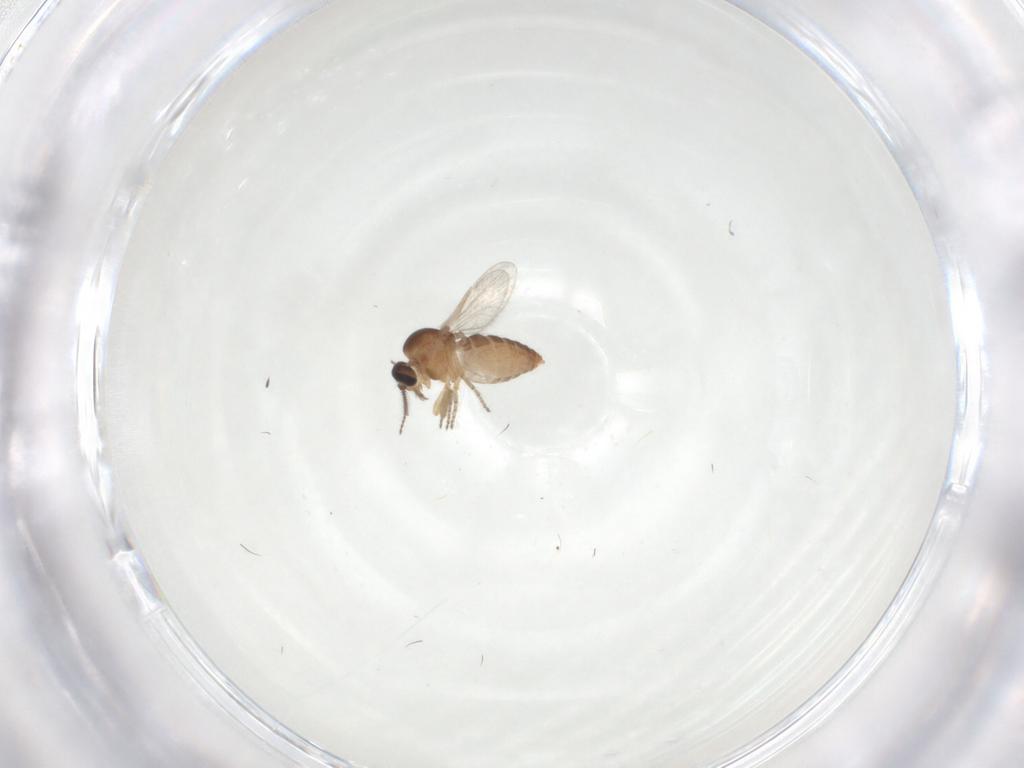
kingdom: Animalia
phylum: Arthropoda
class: Insecta
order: Diptera
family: Ceratopogonidae
